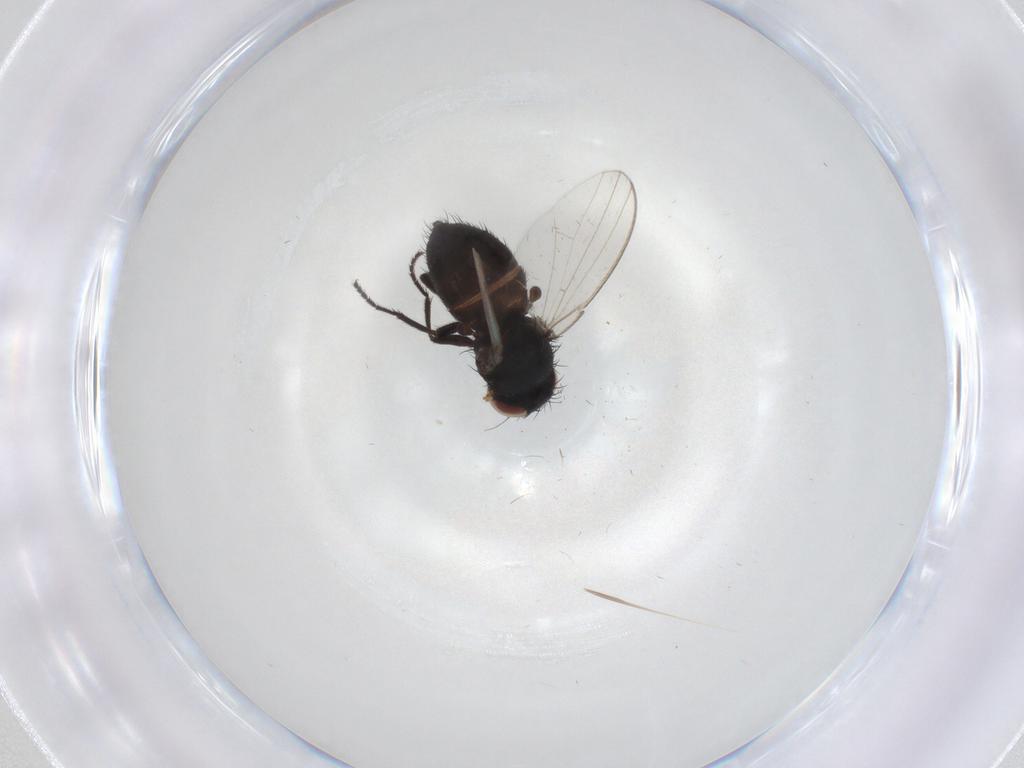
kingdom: Animalia
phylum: Arthropoda
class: Insecta
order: Diptera
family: Milichiidae
